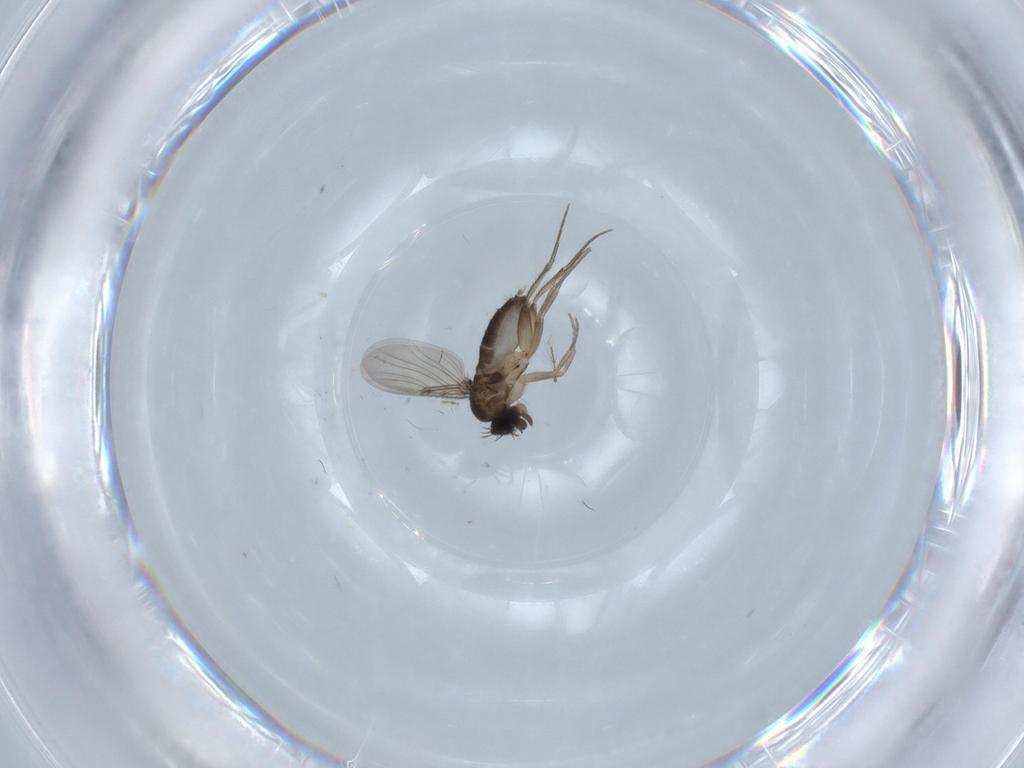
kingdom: Animalia
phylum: Arthropoda
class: Insecta
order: Diptera
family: Phoridae
